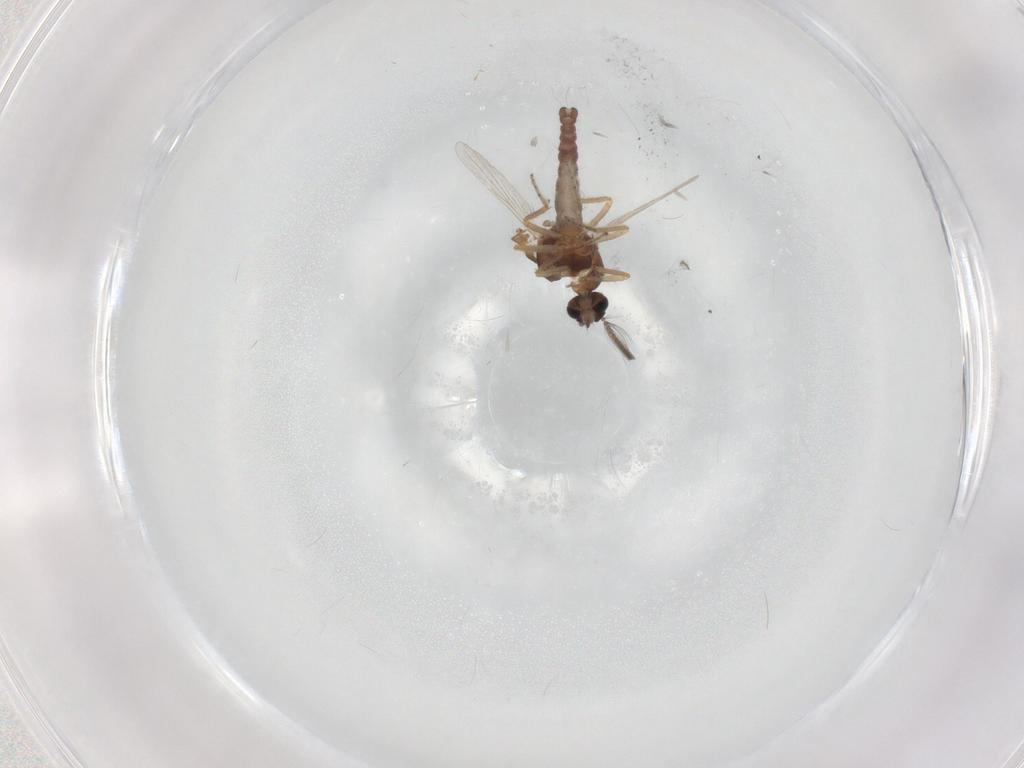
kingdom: Animalia
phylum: Arthropoda
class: Insecta
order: Diptera
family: Ceratopogonidae
